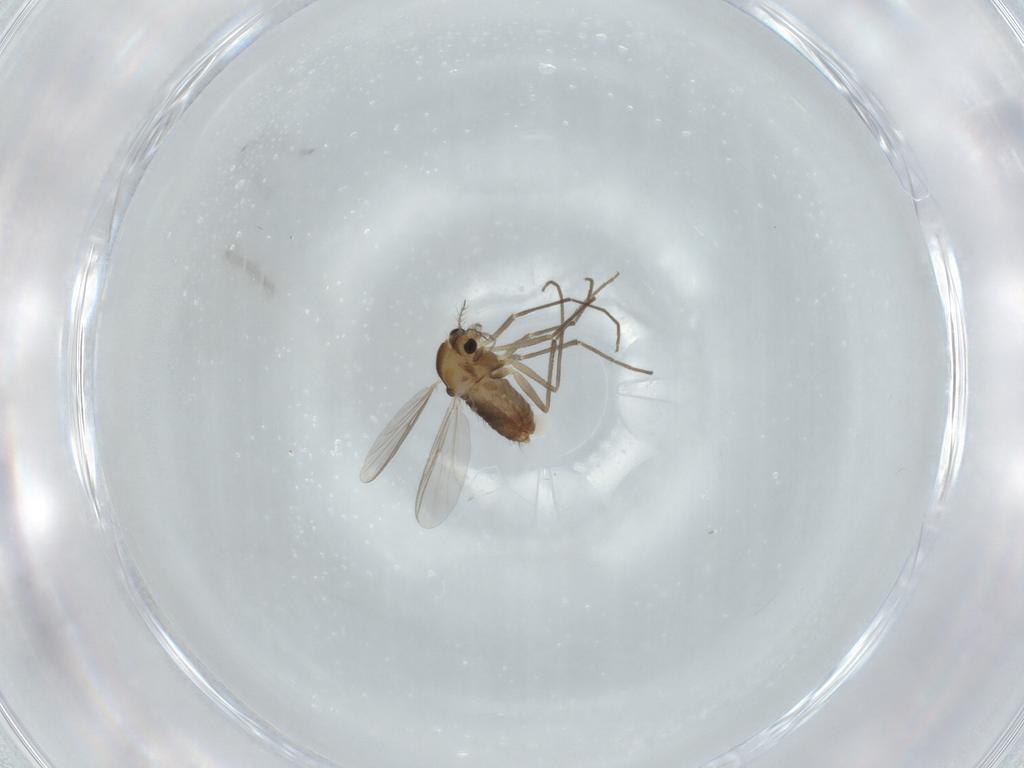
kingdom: Animalia
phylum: Arthropoda
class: Insecta
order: Diptera
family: Chironomidae
